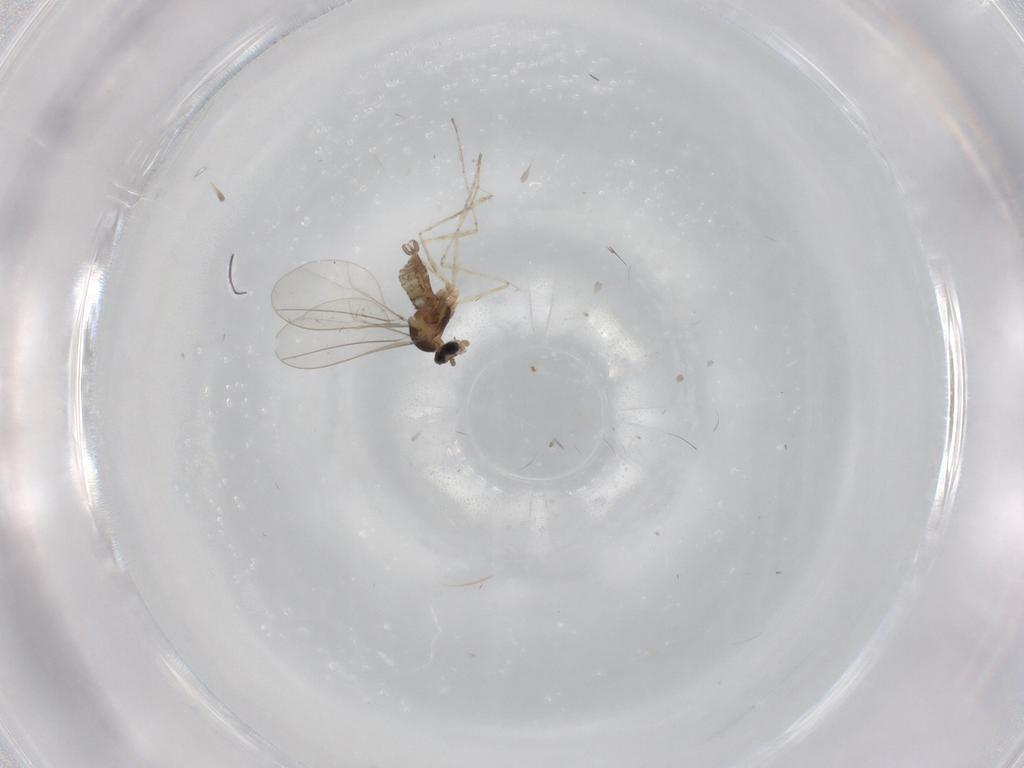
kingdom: Animalia
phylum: Arthropoda
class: Insecta
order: Diptera
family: Cecidomyiidae
